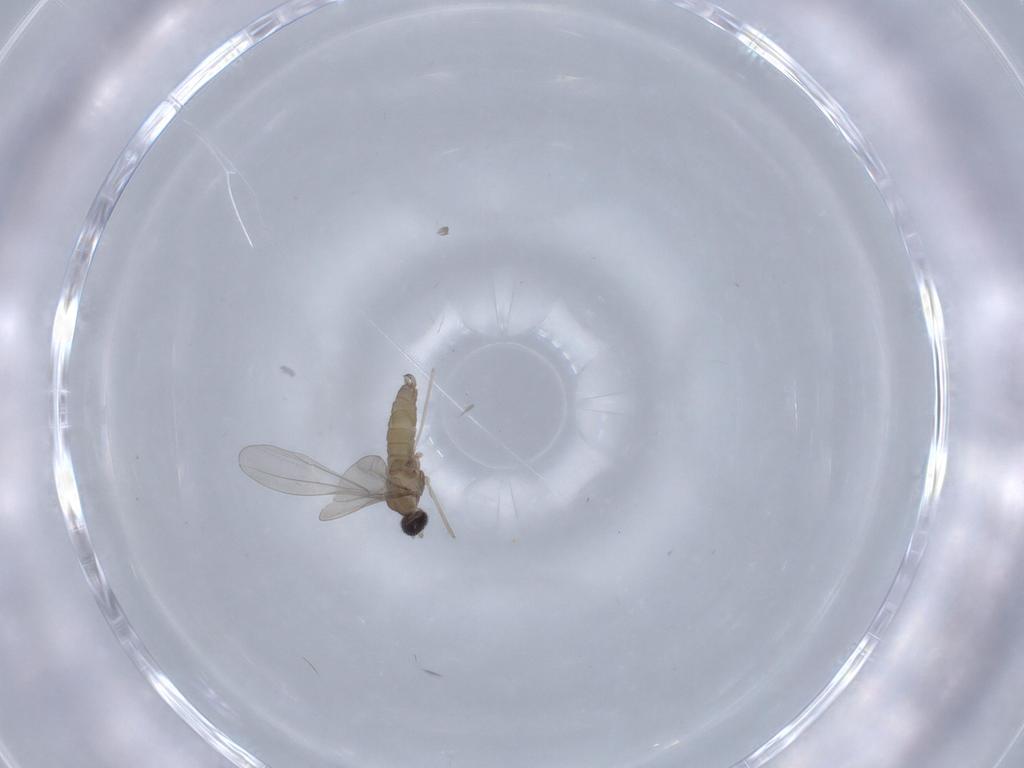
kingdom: Animalia
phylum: Arthropoda
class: Insecta
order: Diptera
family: Cecidomyiidae
